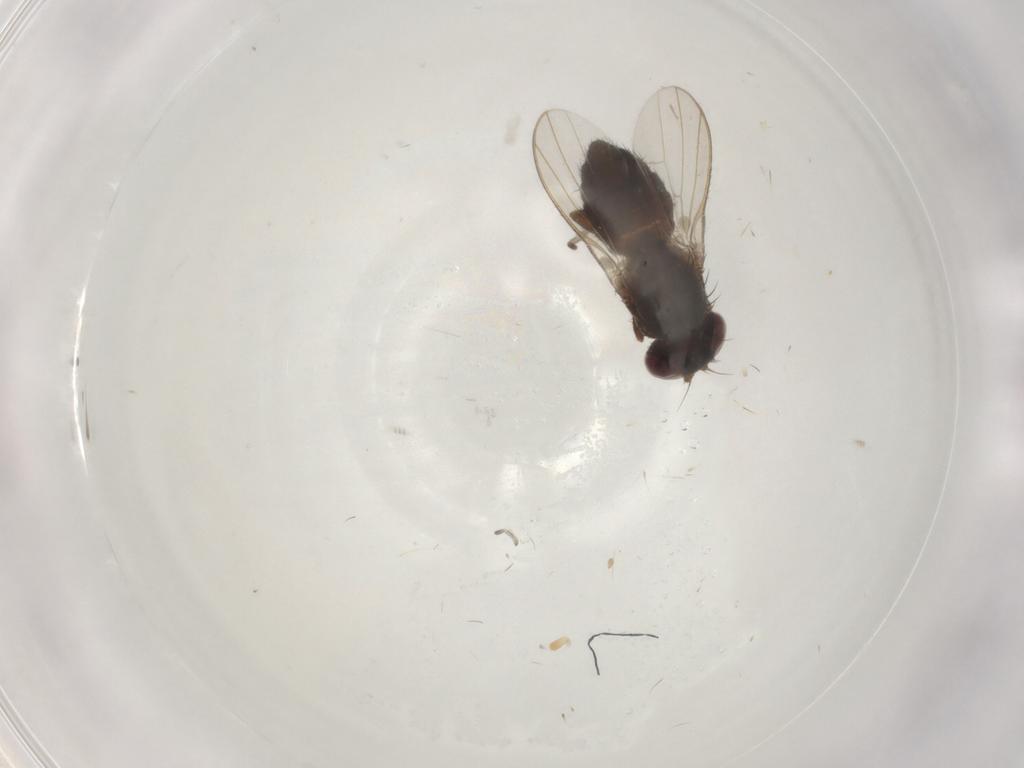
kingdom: Animalia
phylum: Arthropoda
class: Insecta
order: Diptera
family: Heleomyzidae
